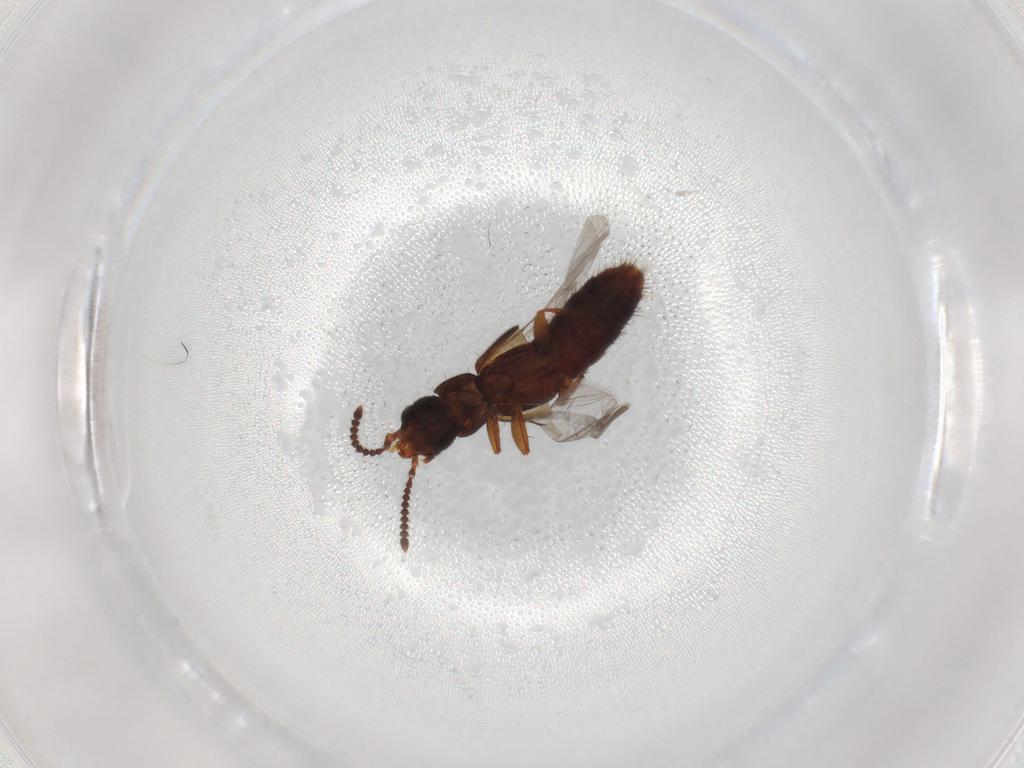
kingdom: Animalia
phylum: Arthropoda
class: Insecta
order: Coleoptera
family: Staphylinidae
